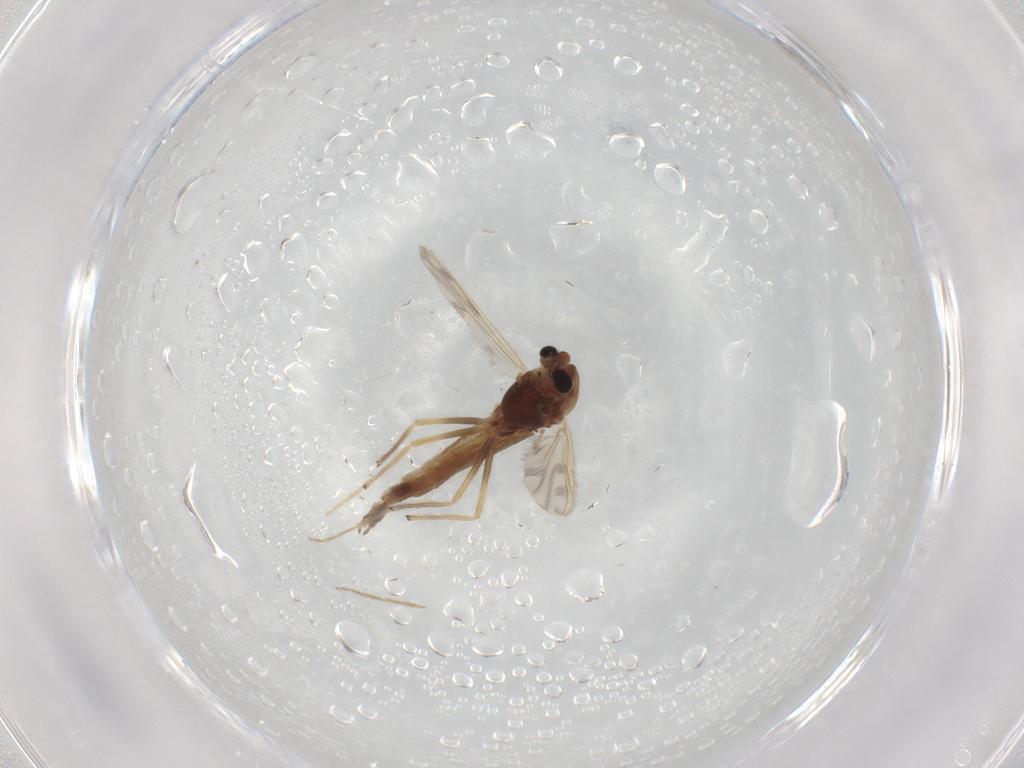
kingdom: Animalia
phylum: Arthropoda
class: Insecta
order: Diptera
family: Chironomidae
